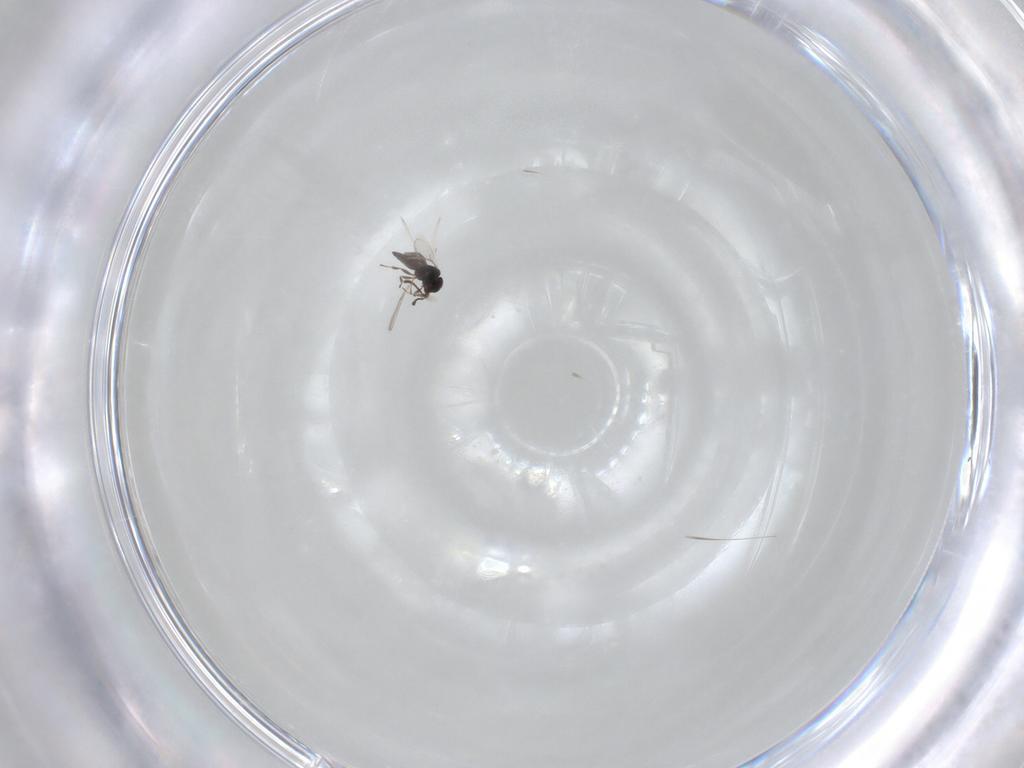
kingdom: Animalia
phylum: Arthropoda
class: Insecta
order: Hymenoptera
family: Scelionidae
